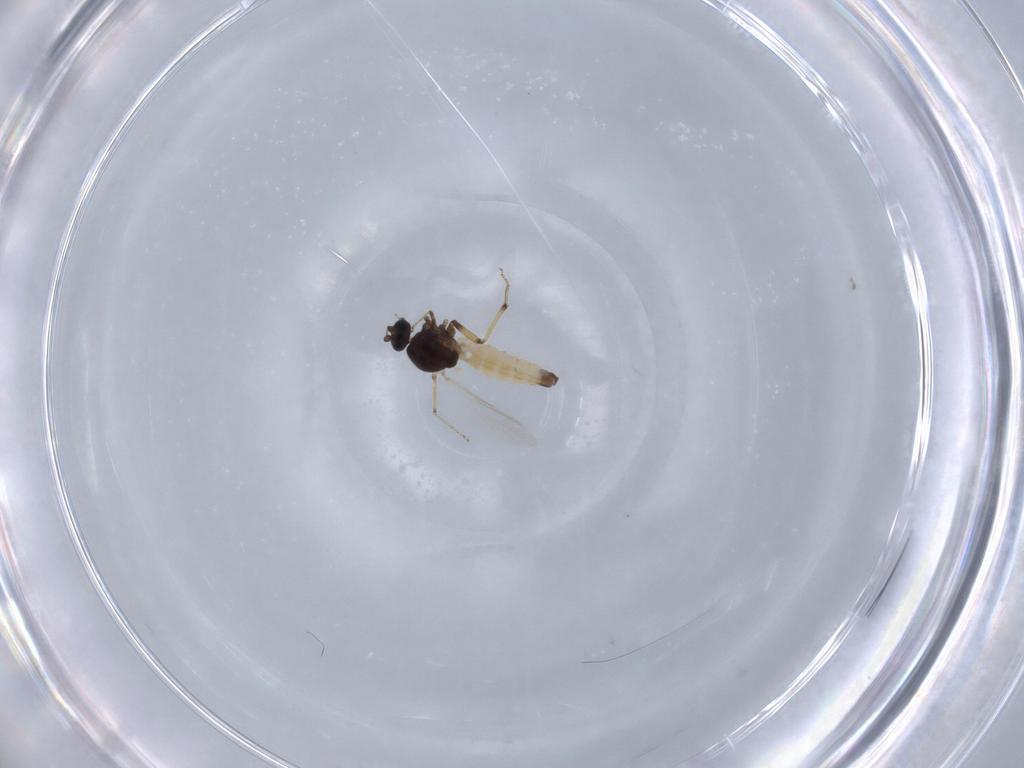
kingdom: Animalia
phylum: Arthropoda
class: Insecta
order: Diptera
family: Ceratopogonidae
